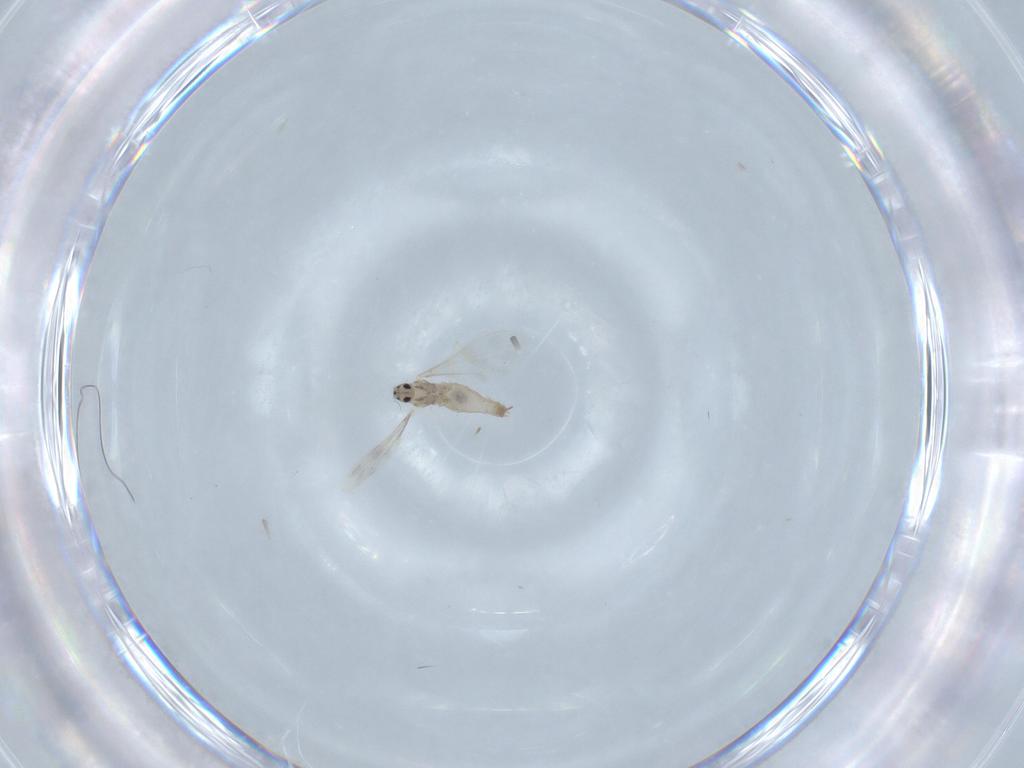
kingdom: Animalia
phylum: Arthropoda
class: Insecta
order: Diptera
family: Cecidomyiidae
